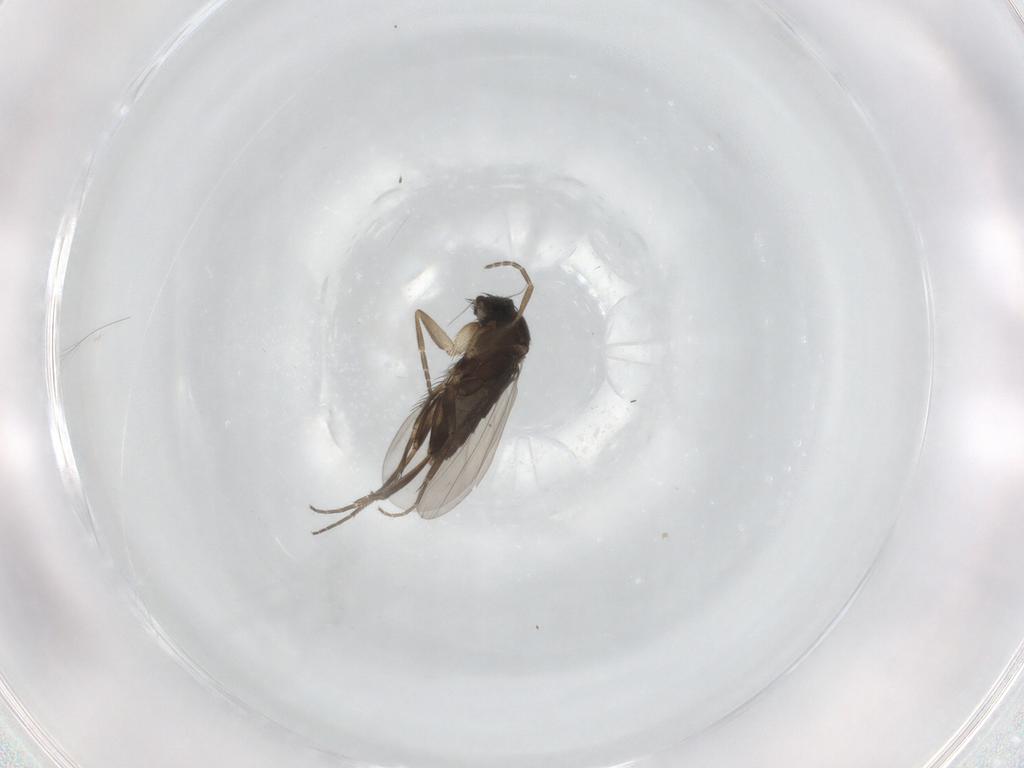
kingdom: Animalia
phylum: Arthropoda
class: Insecta
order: Diptera
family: Phoridae
